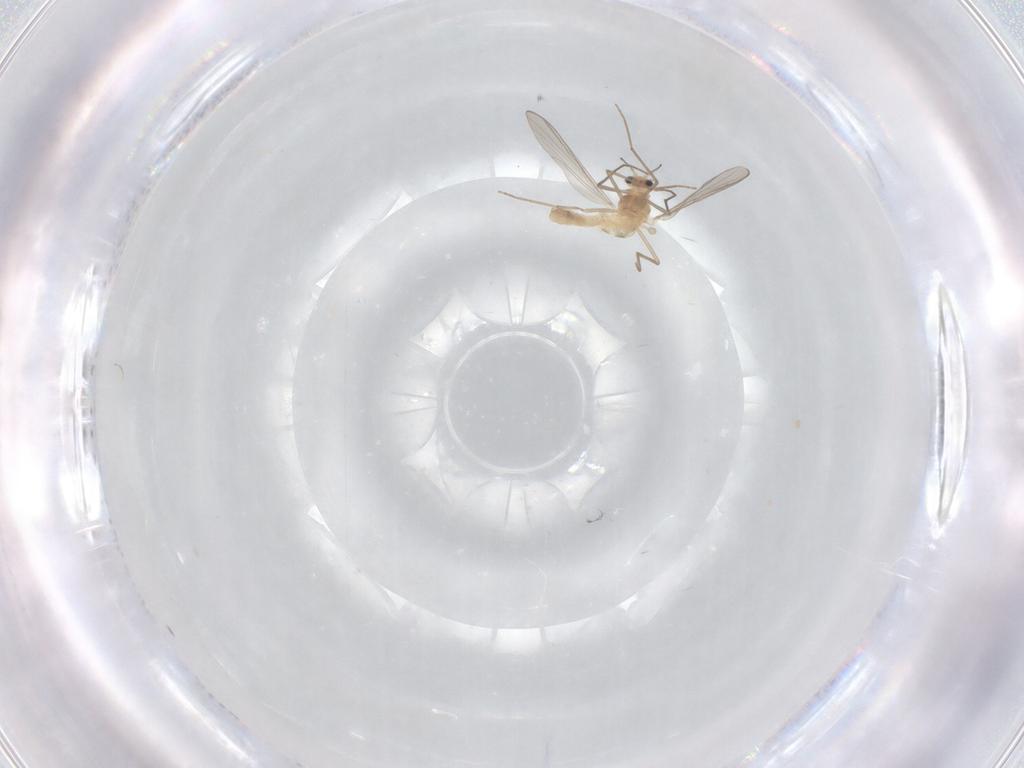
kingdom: Animalia
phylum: Arthropoda
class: Insecta
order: Diptera
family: Chironomidae
